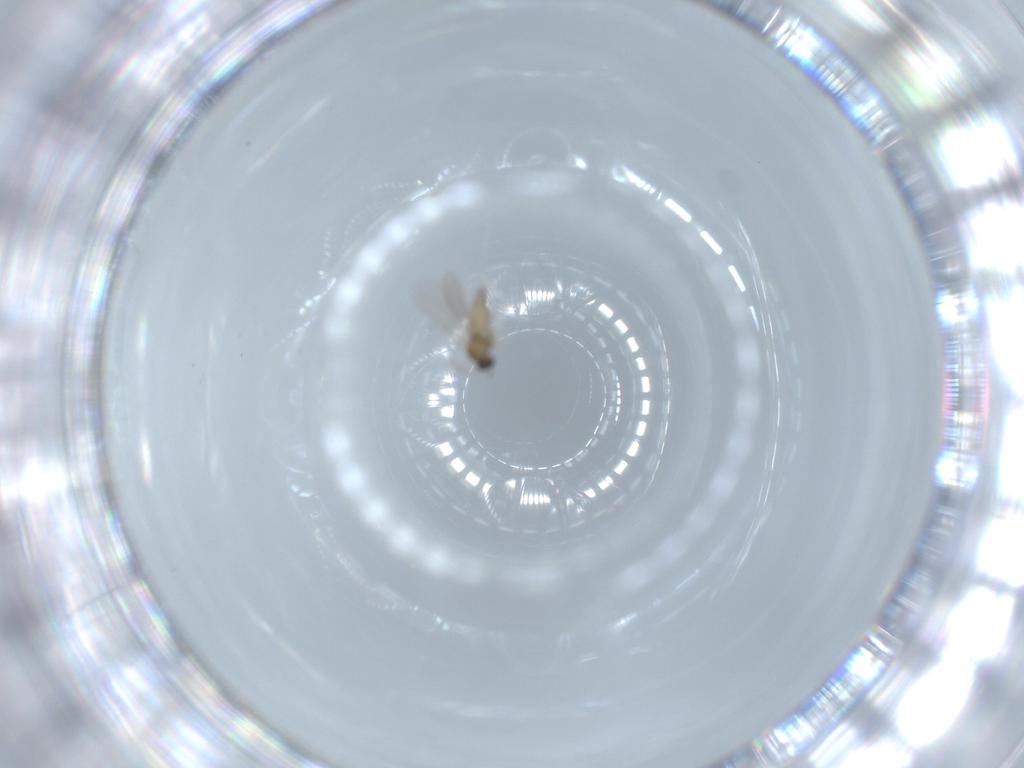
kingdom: Animalia
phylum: Arthropoda
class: Insecta
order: Diptera
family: Cecidomyiidae
